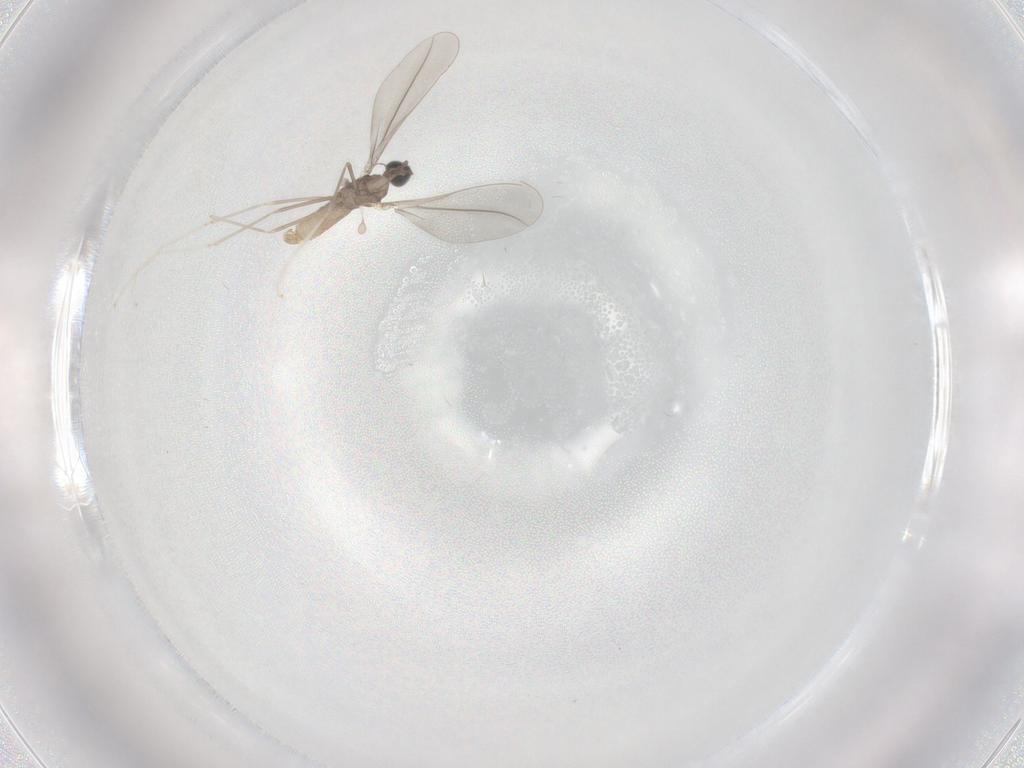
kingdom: Animalia
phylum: Arthropoda
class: Insecta
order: Diptera
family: Cecidomyiidae
